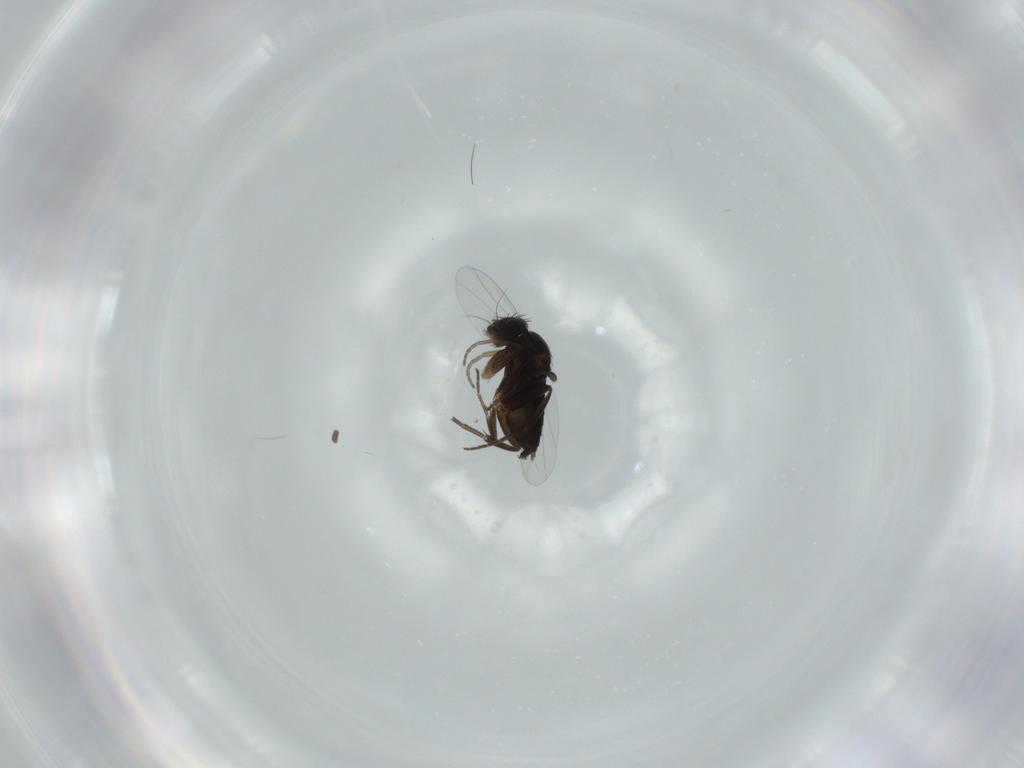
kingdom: Animalia
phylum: Arthropoda
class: Insecta
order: Diptera
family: Phoridae
